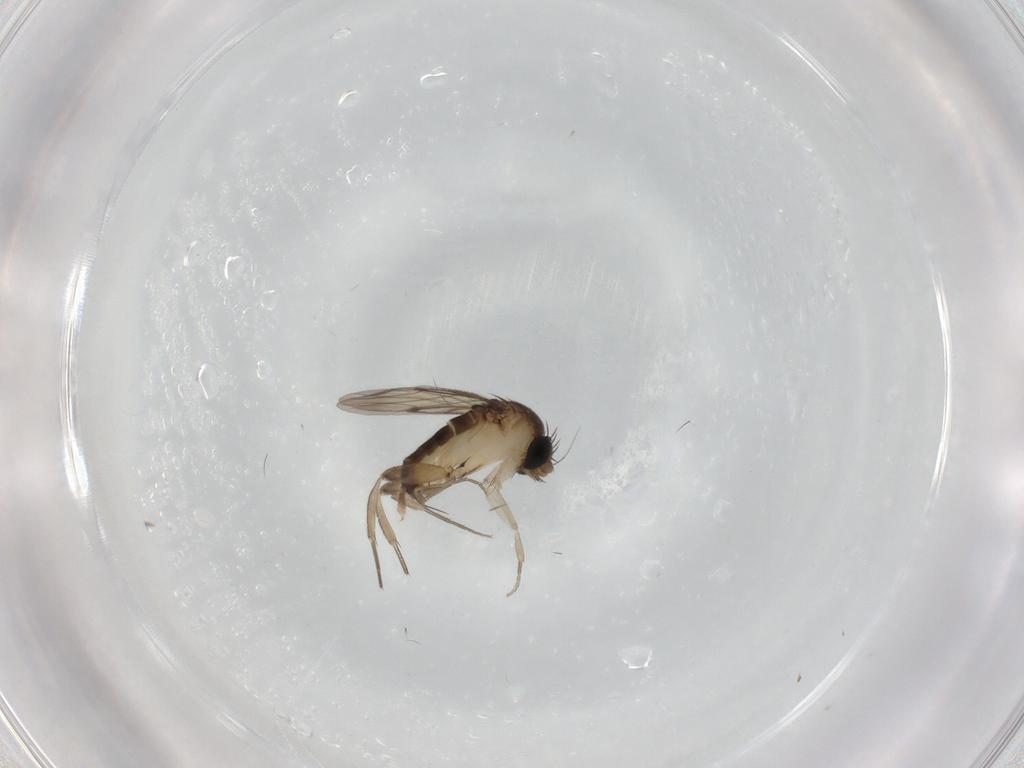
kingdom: Animalia
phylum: Arthropoda
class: Insecta
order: Diptera
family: Phoridae
